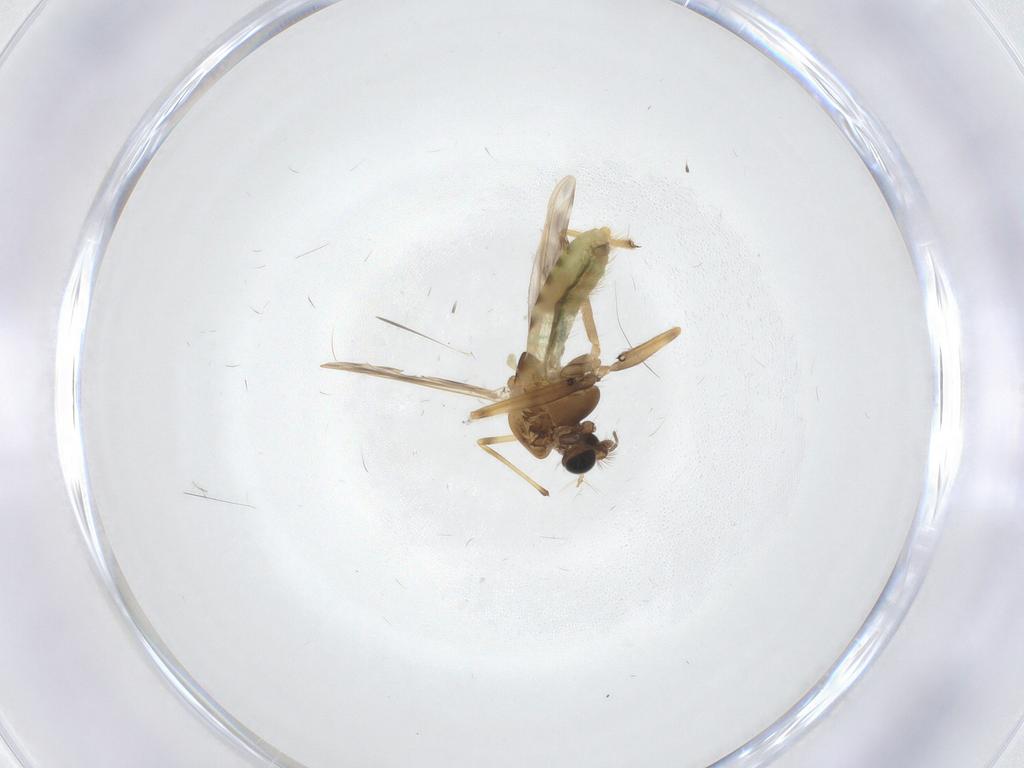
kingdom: Animalia
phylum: Arthropoda
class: Insecta
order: Diptera
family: Chironomidae
